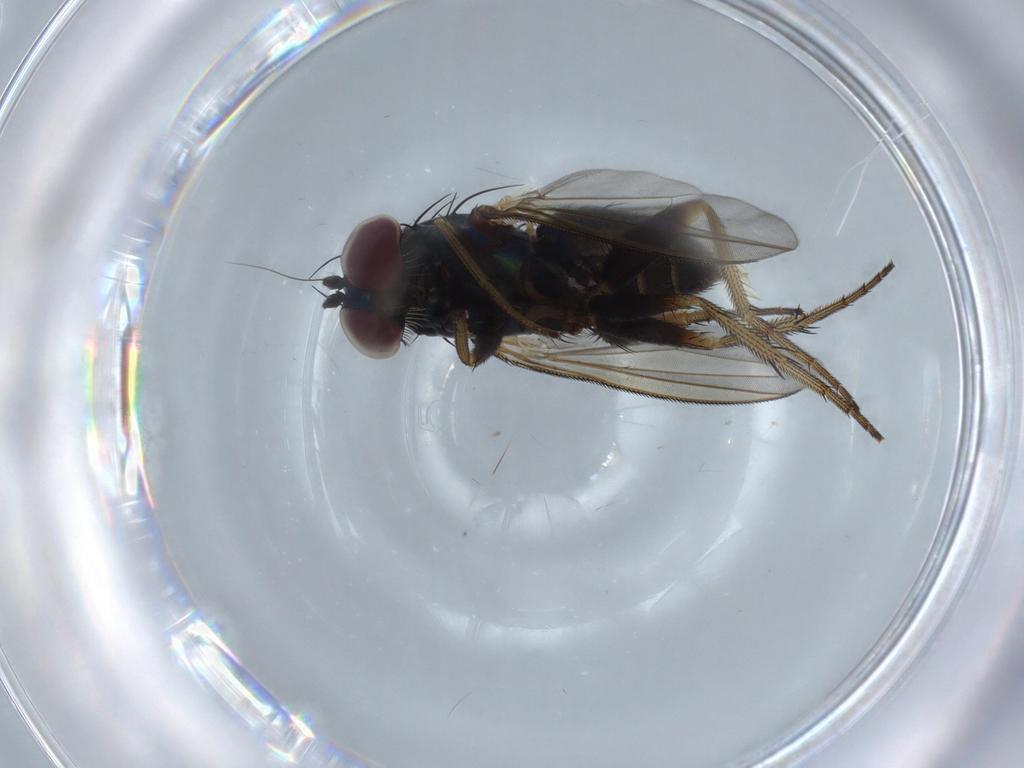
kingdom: Animalia
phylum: Arthropoda
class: Insecta
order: Diptera
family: Dolichopodidae
